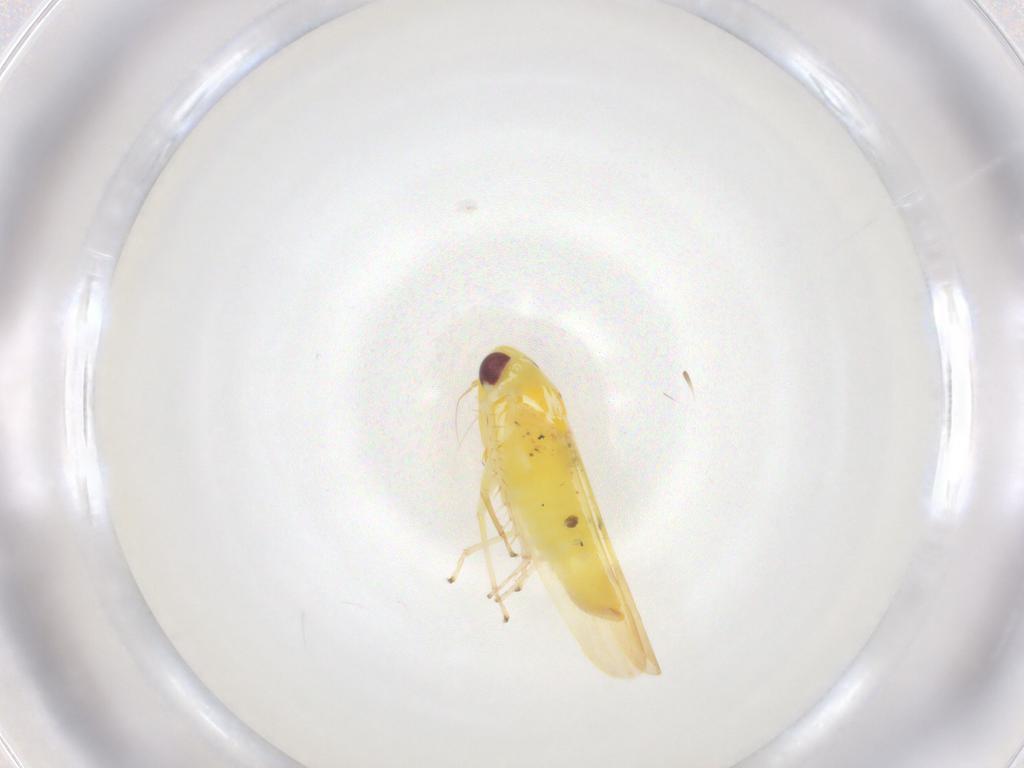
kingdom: Animalia
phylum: Arthropoda
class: Insecta
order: Hemiptera
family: Cicadellidae
